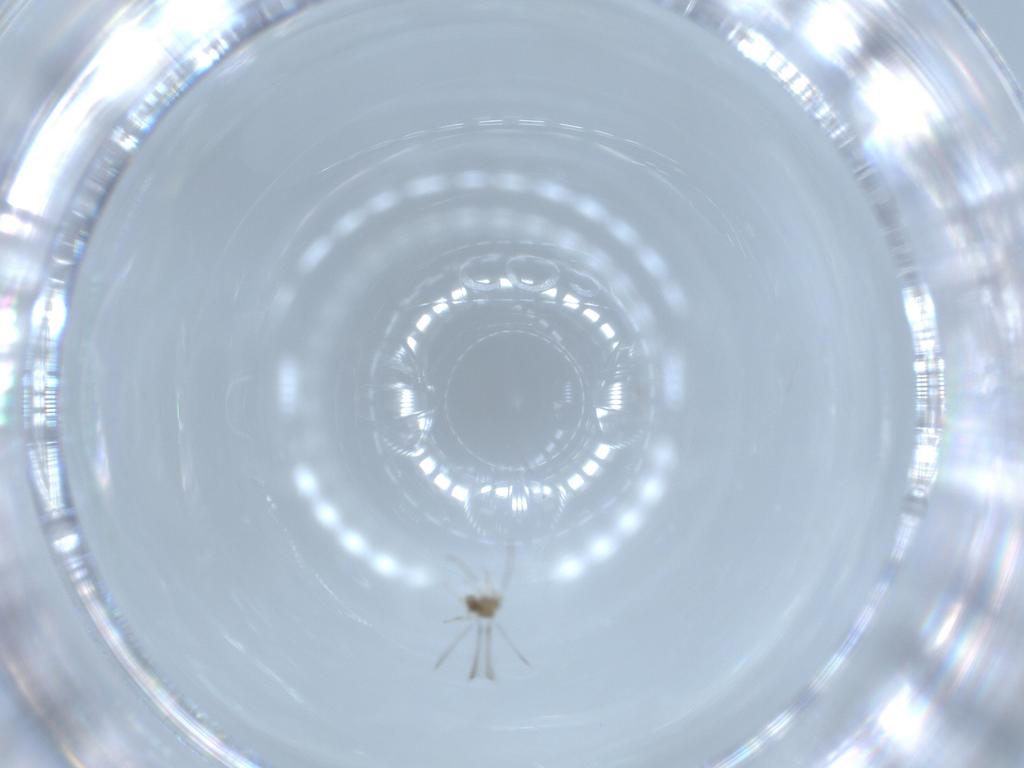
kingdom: Animalia
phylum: Arthropoda
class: Insecta
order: Hymenoptera
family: Mymaridae
